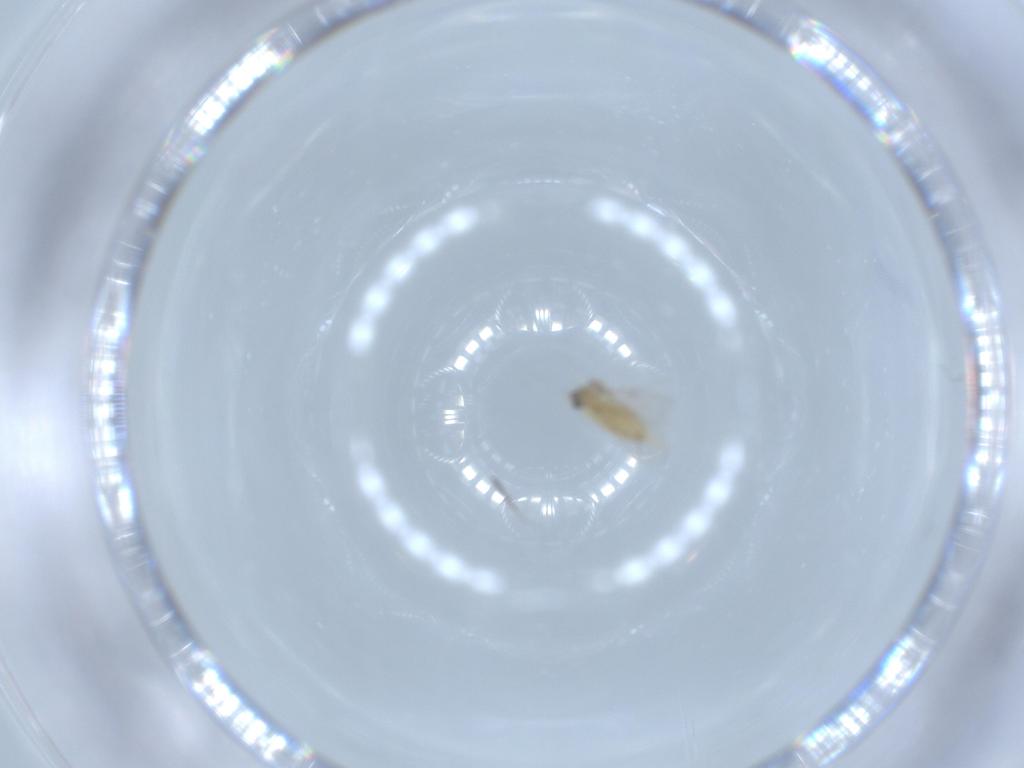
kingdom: Animalia
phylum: Arthropoda
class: Insecta
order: Diptera
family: Cecidomyiidae
